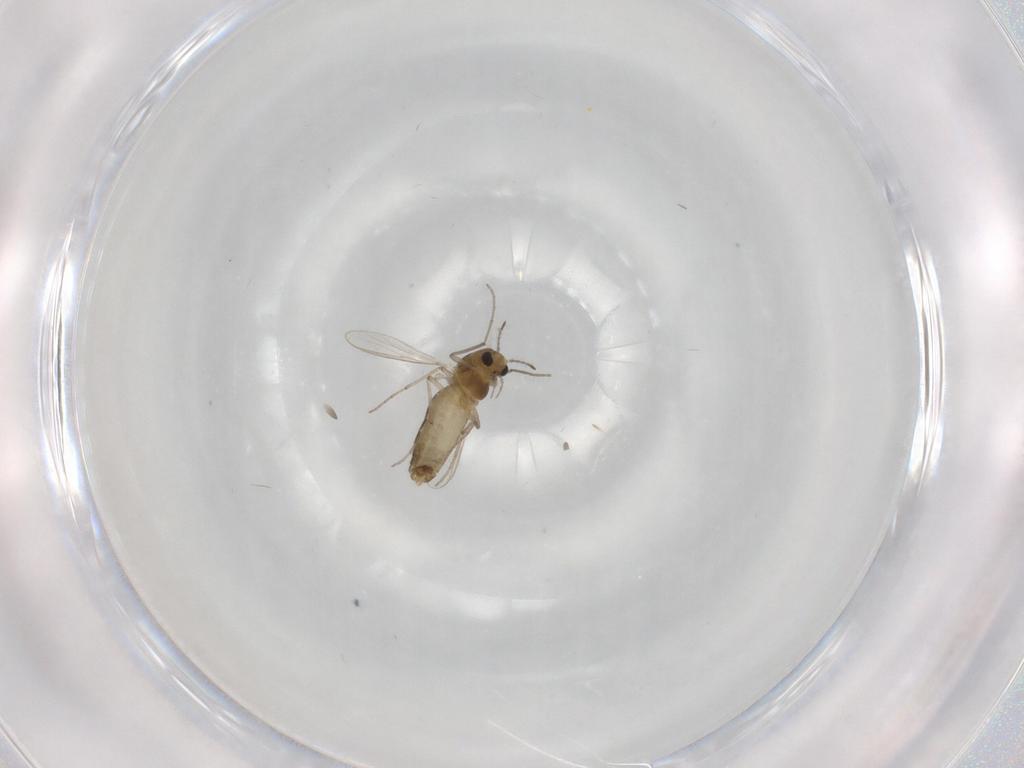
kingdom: Animalia
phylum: Arthropoda
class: Insecta
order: Diptera
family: Chironomidae
